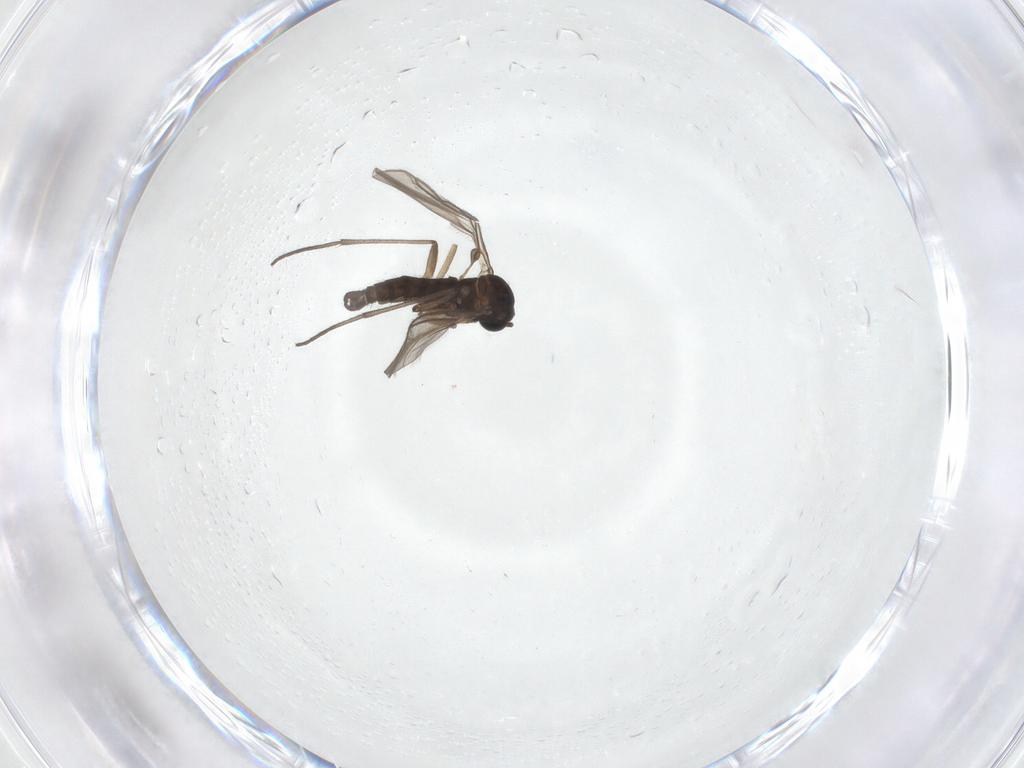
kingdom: Animalia
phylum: Arthropoda
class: Insecta
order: Diptera
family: Sciaridae
